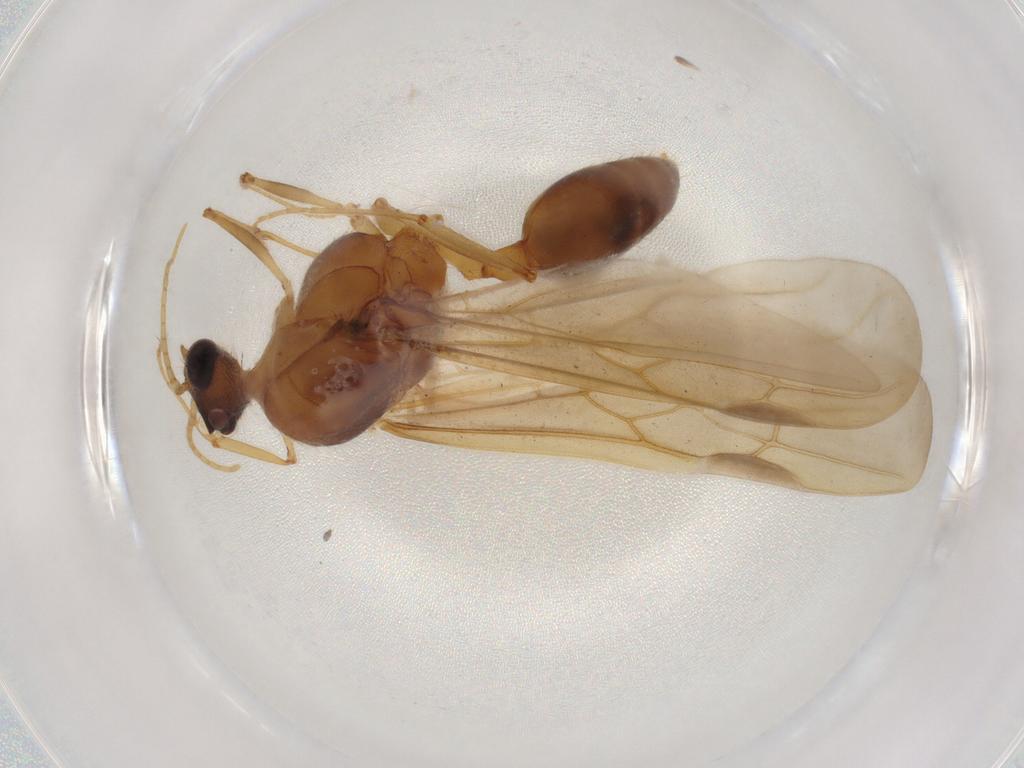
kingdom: Animalia
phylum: Arthropoda
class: Insecta
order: Hymenoptera
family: Formicidae
